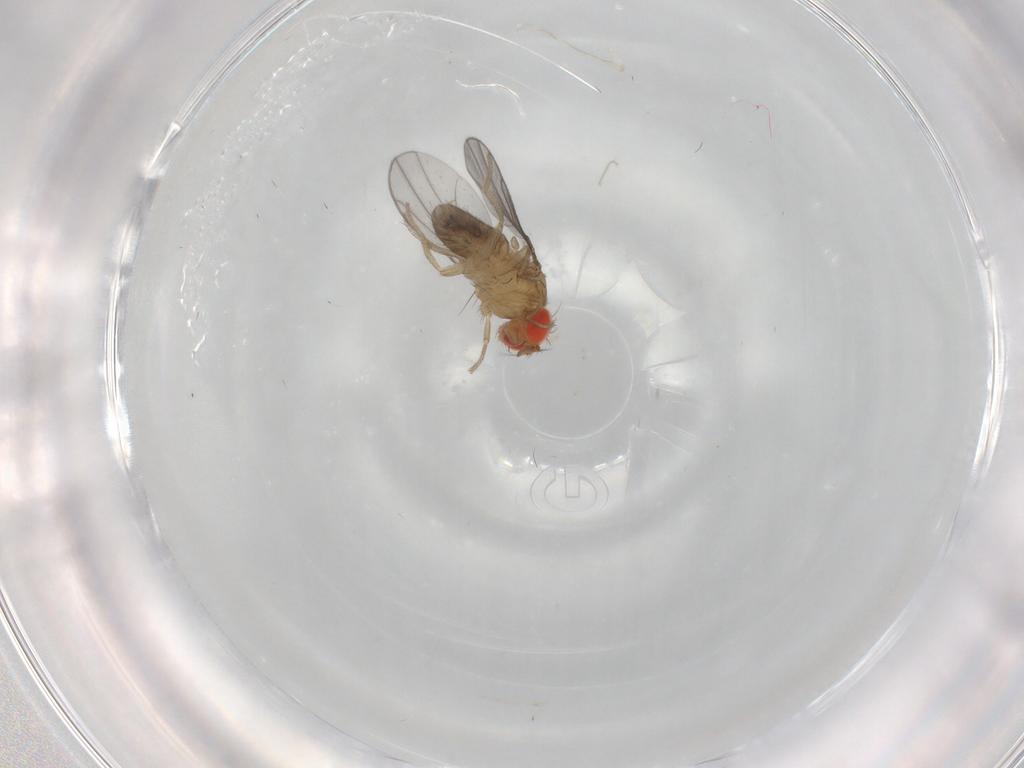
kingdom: Animalia
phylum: Arthropoda
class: Insecta
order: Diptera
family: Drosophilidae
